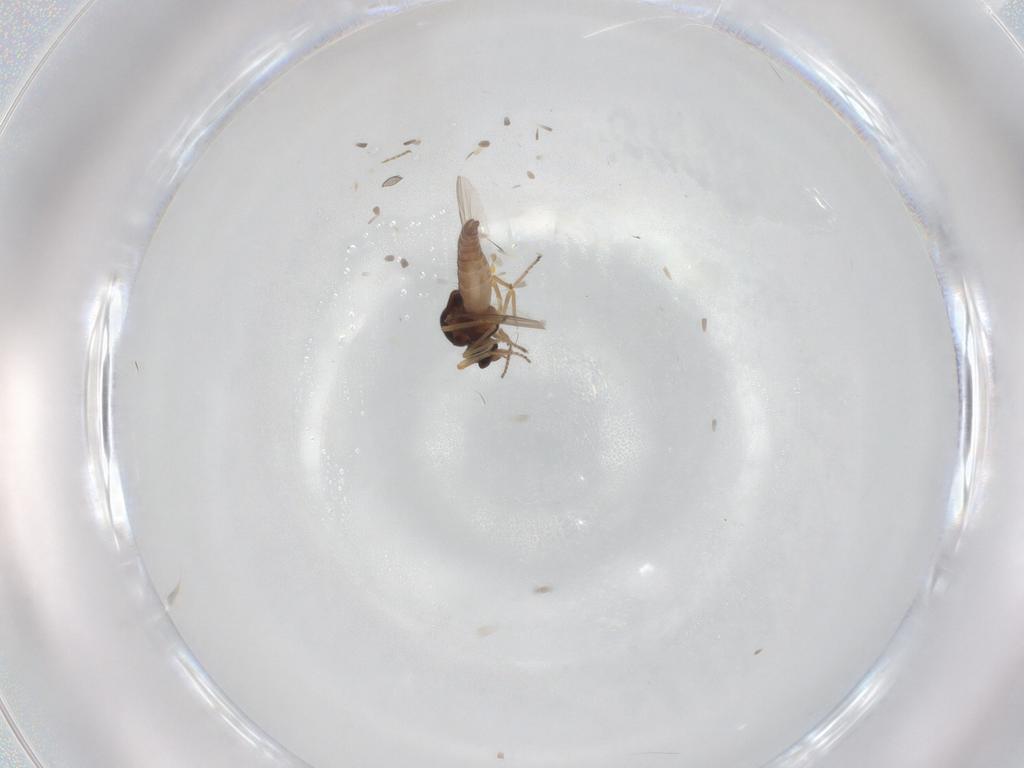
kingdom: Animalia
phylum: Arthropoda
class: Insecta
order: Diptera
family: Ceratopogonidae
